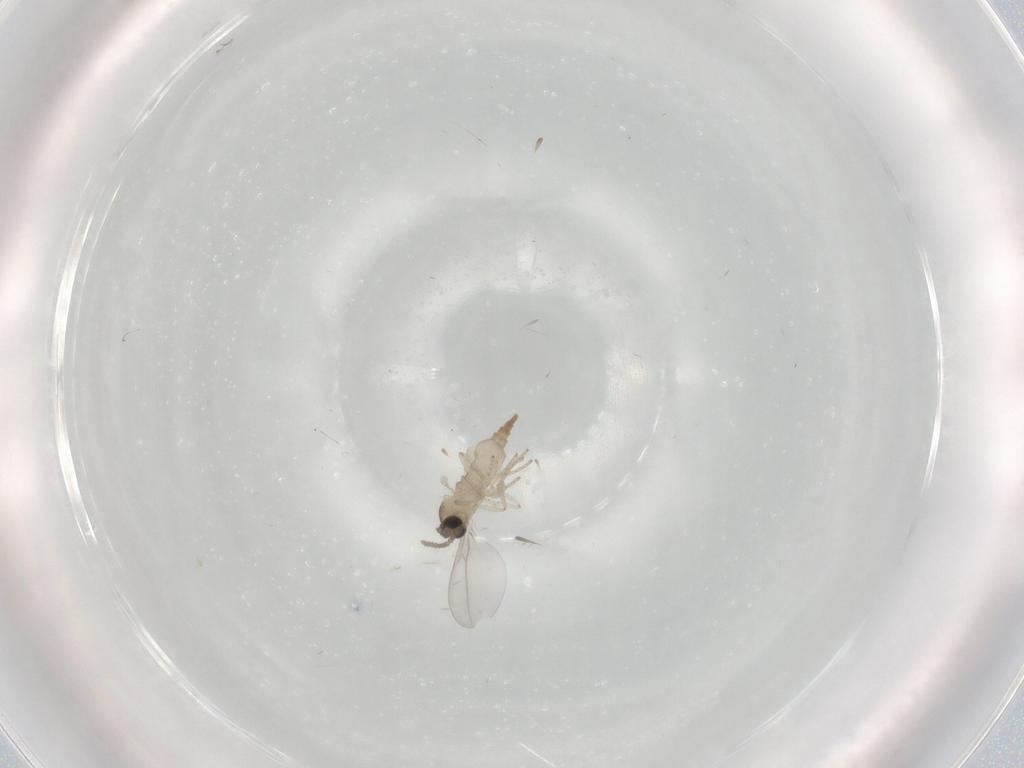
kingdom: Animalia
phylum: Arthropoda
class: Insecta
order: Diptera
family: Cecidomyiidae
